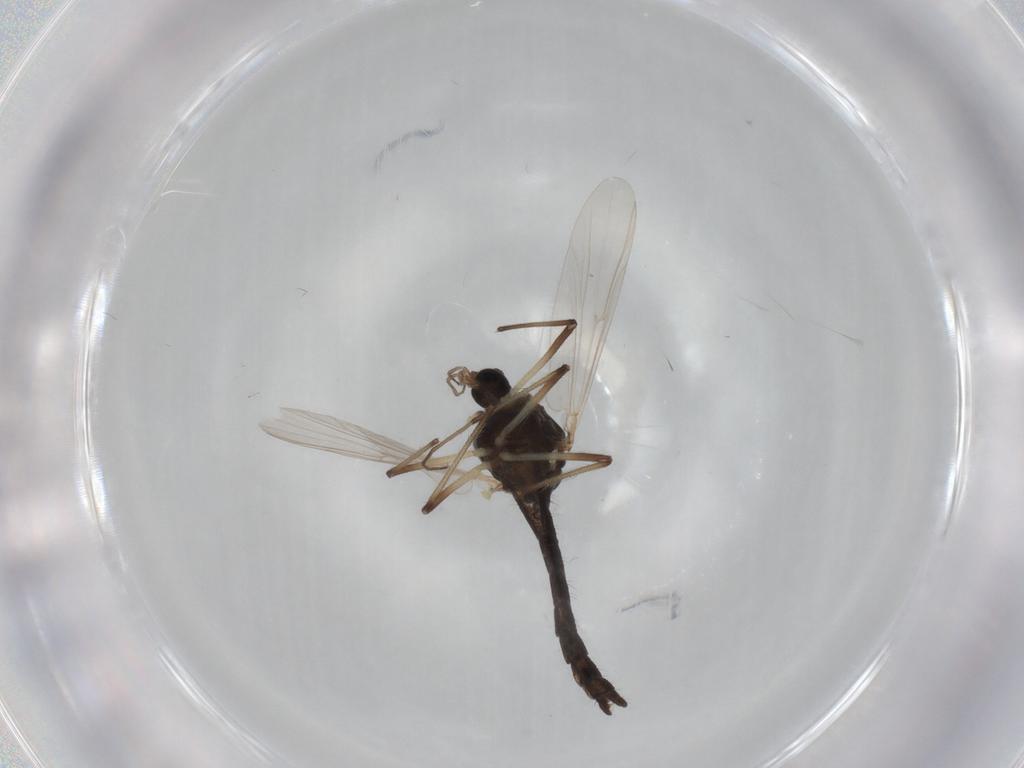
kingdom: Animalia
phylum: Arthropoda
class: Insecta
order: Diptera
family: Chironomidae
